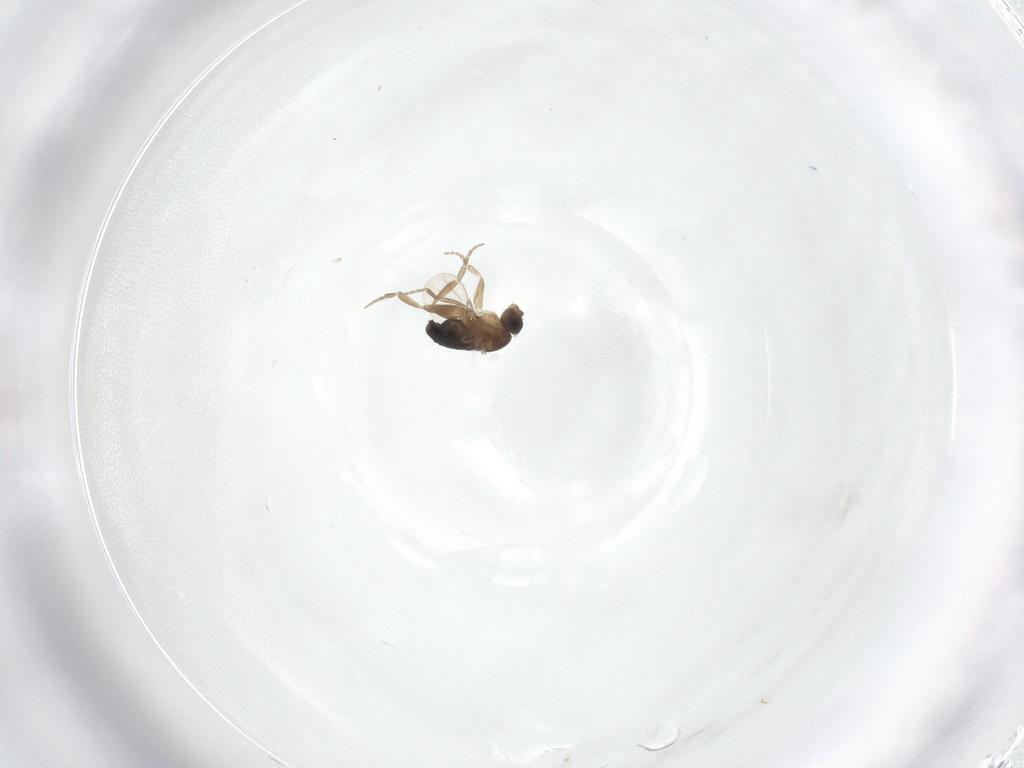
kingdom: Animalia
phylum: Arthropoda
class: Insecta
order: Diptera
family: Phoridae
